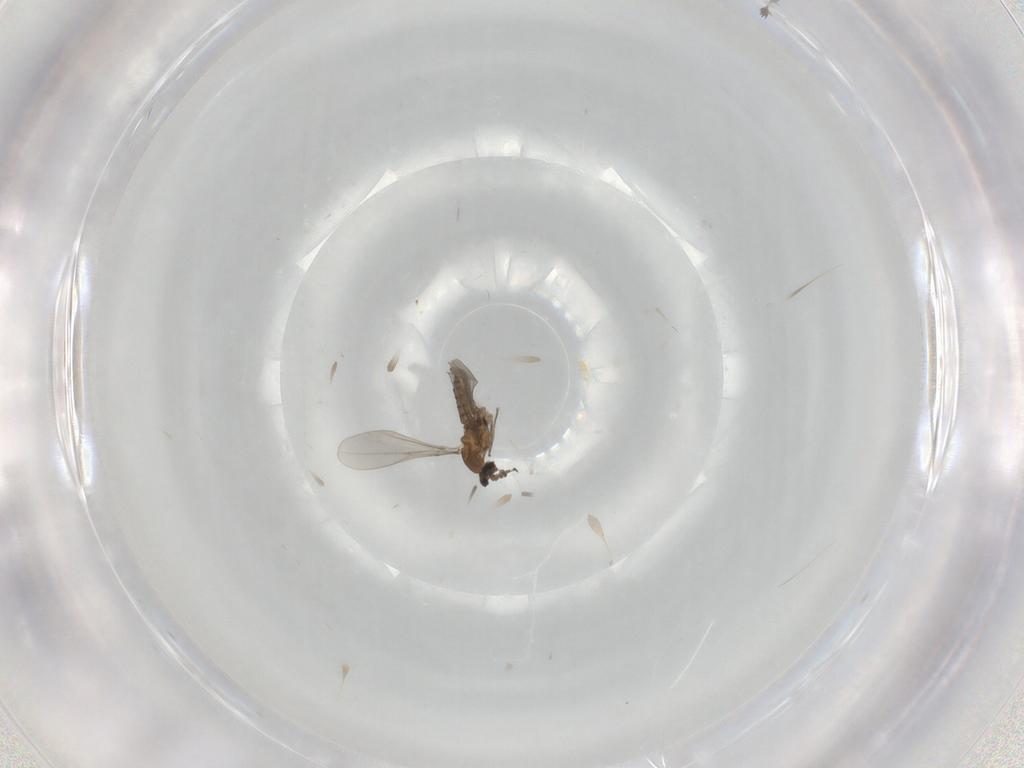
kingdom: Animalia
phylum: Arthropoda
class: Insecta
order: Diptera
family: Cecidomyiidae
